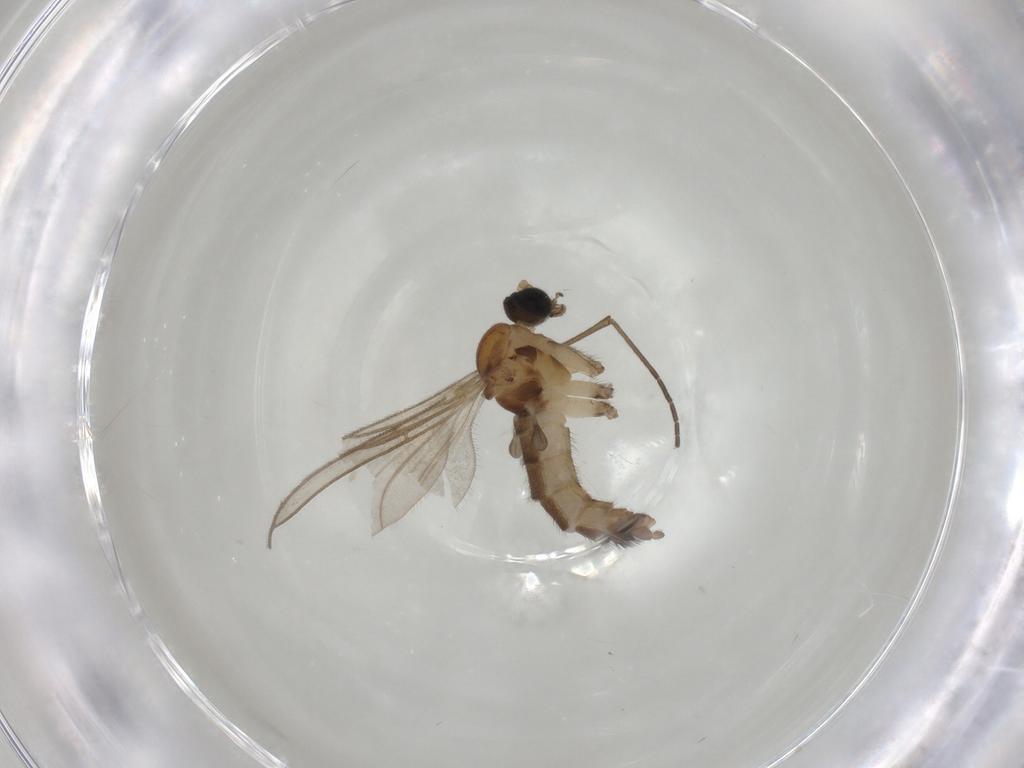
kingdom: Animalia
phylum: Arthropoda
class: Insecta
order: Diptera
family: Sciaridae
